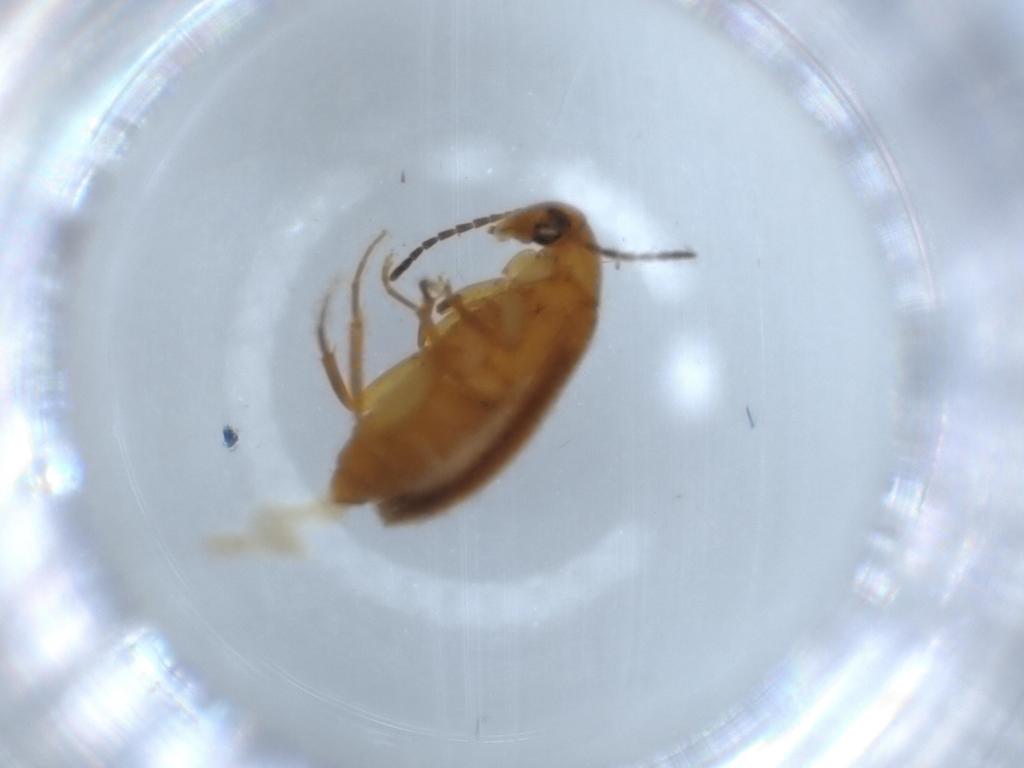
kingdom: Animalia
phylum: Arthropoda
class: Insecta
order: Coleoptera
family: Scraptiidae
